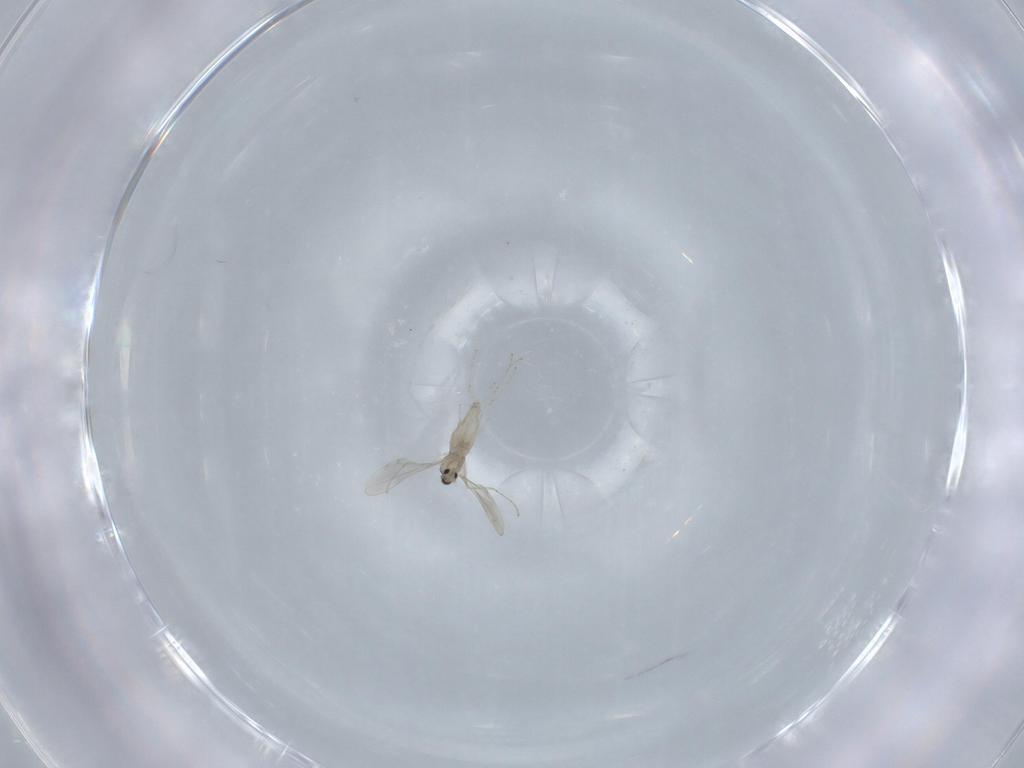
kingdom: Animalia
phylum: Arthropoda
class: Insecta
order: Diptera
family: Cecidomyiidae
